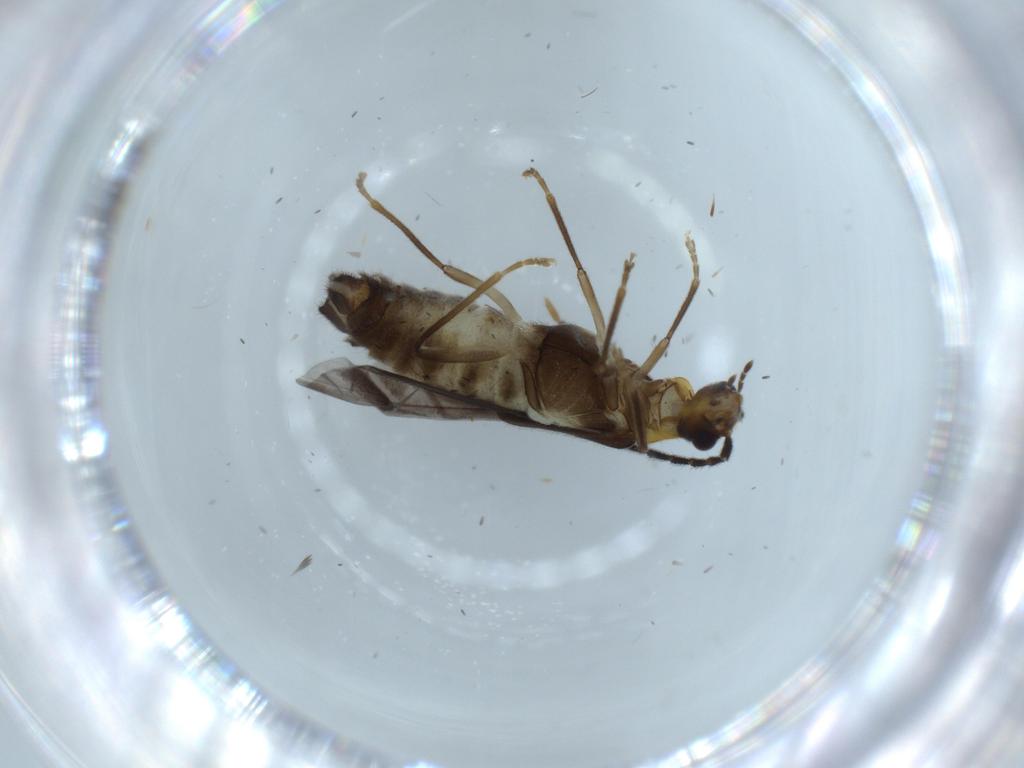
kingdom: Animalia
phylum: Arthropoda
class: Insecta
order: Coleoptera
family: Cantharidae
